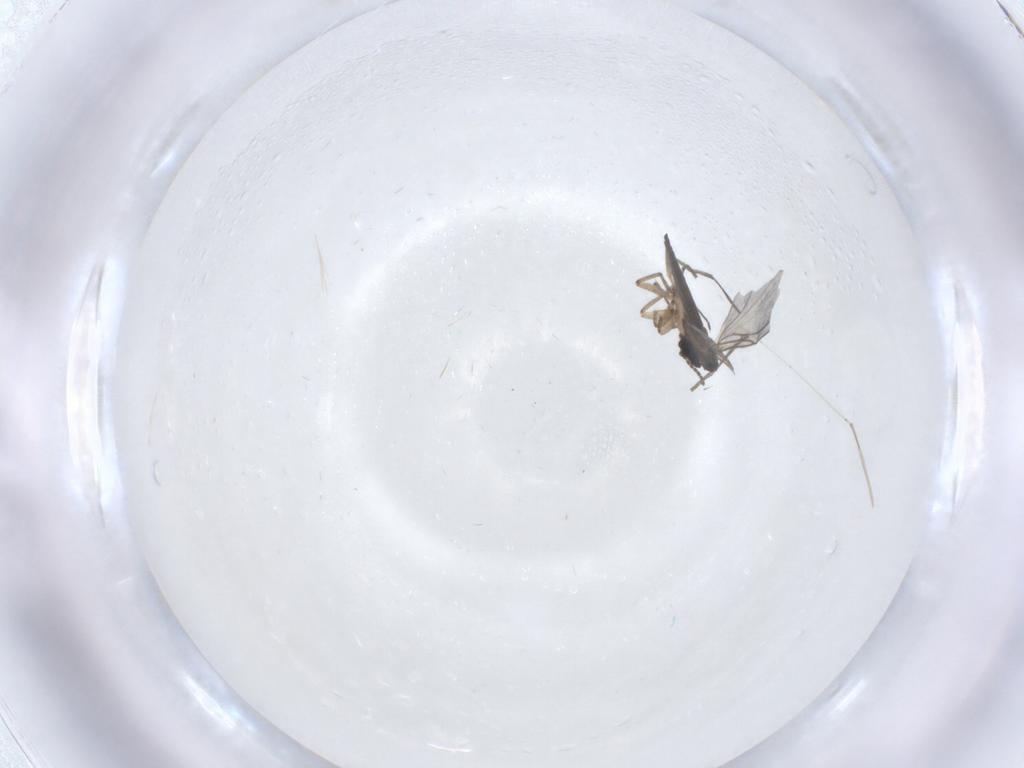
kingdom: Animalia
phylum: Arthropoda
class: Insecta
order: Diptera
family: Sciaridae
